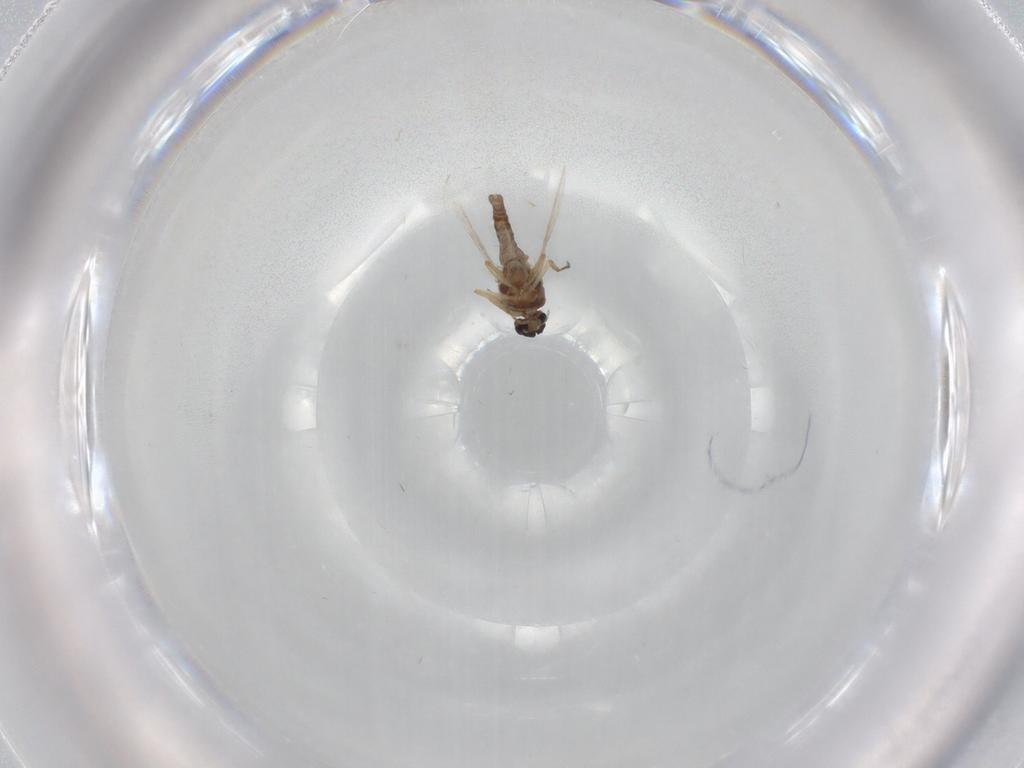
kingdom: Animalia
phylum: Arthropoda
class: Insecta
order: Diptera
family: Ceratopogonidae
